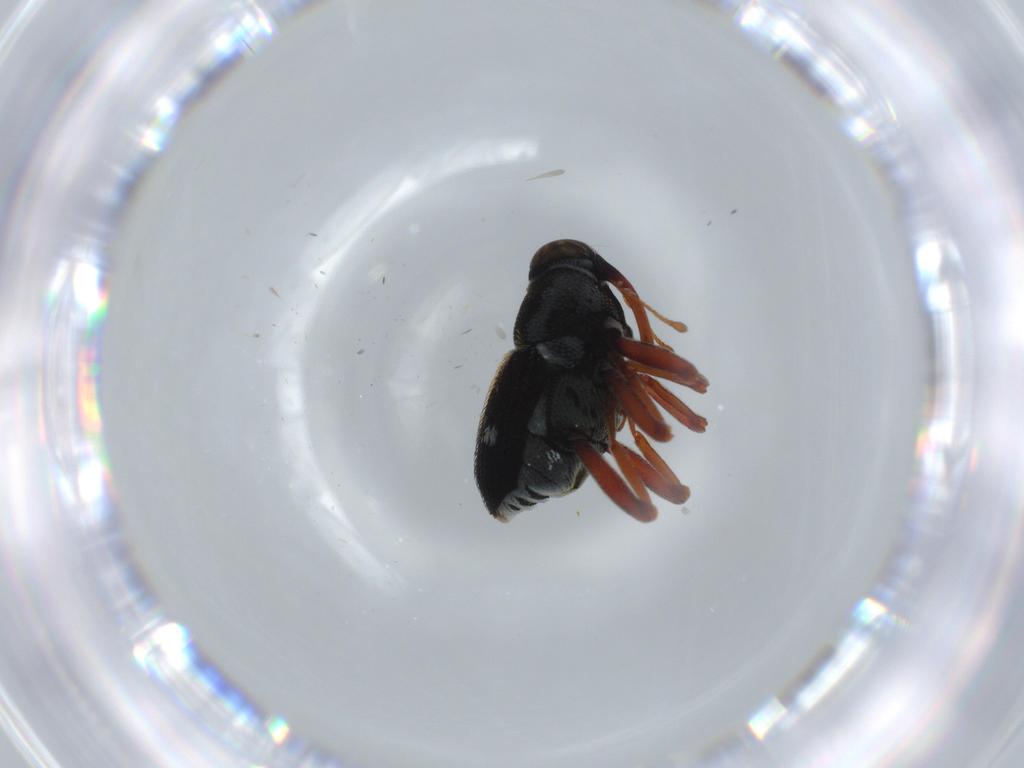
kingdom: Animalia
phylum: Arthropoda
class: Insecta
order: Coleoptera
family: Curculionidae
